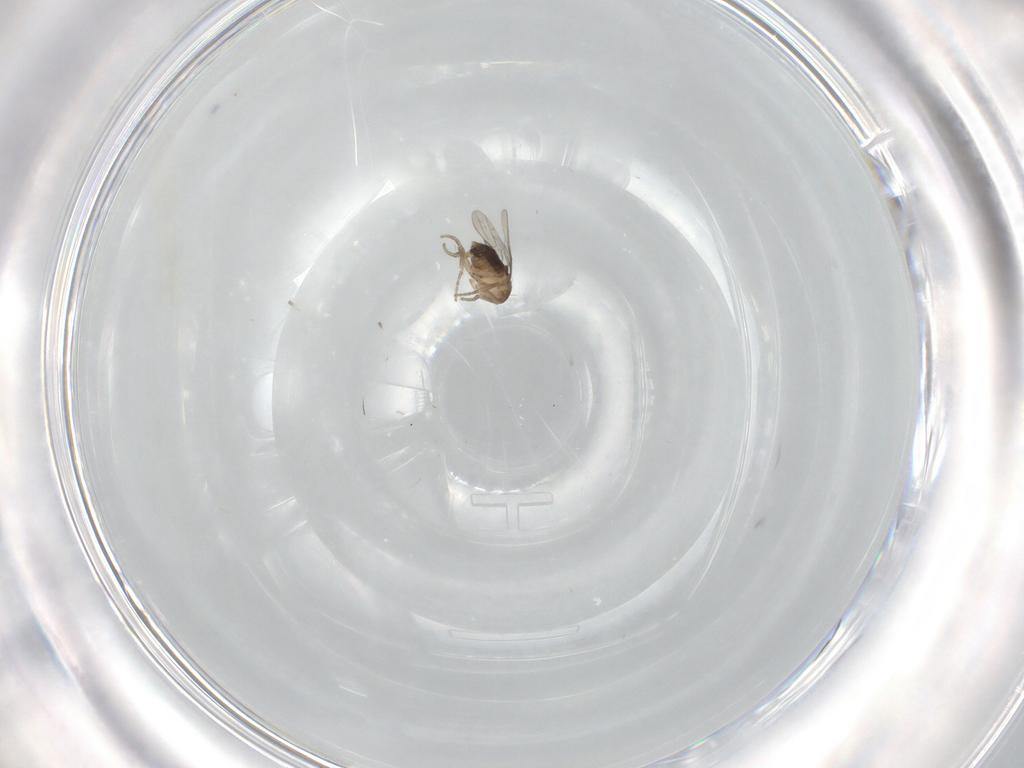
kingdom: Animalia
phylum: Arthropoda
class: Insecta
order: Diptera
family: Phoridae
